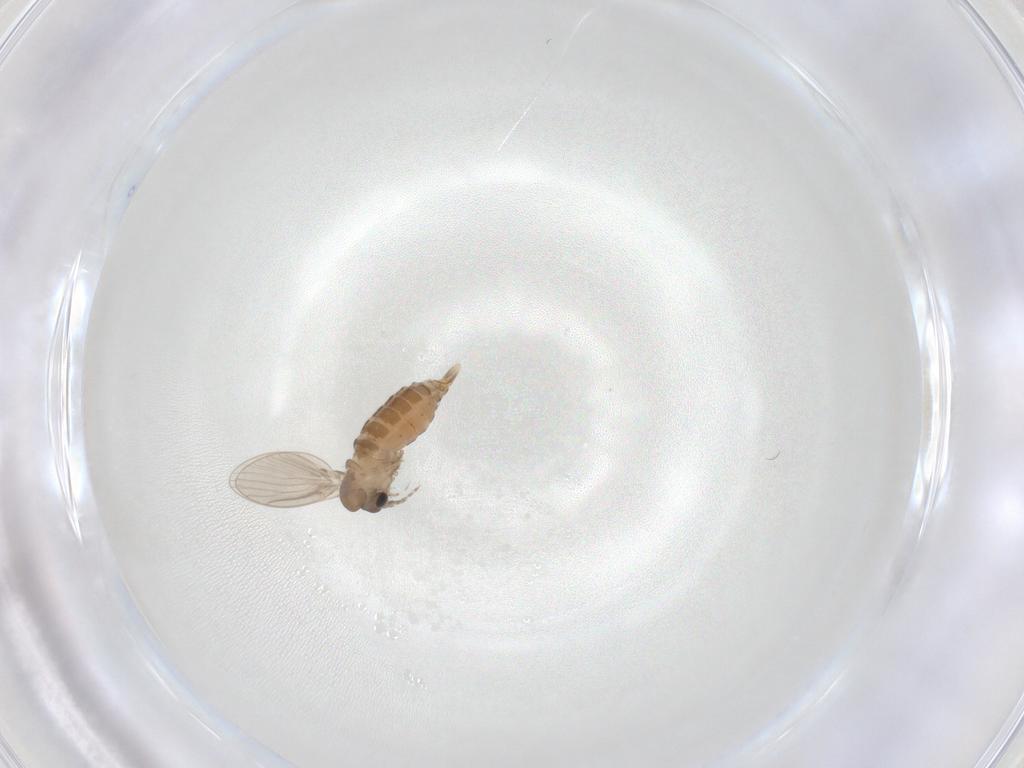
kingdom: Animalia
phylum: Arthropoda
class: Insecta
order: Diptera
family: Psychodidae
